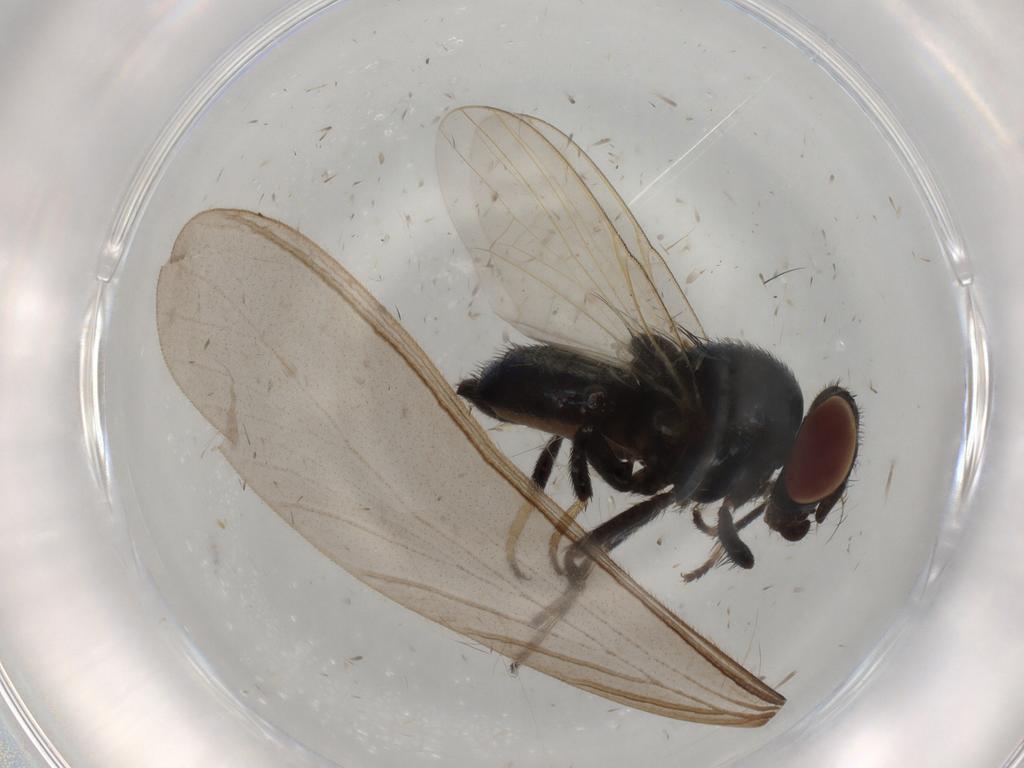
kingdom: Animalia
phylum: Arthropoda
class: Insecta
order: Diptera
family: Lonchaeidae
